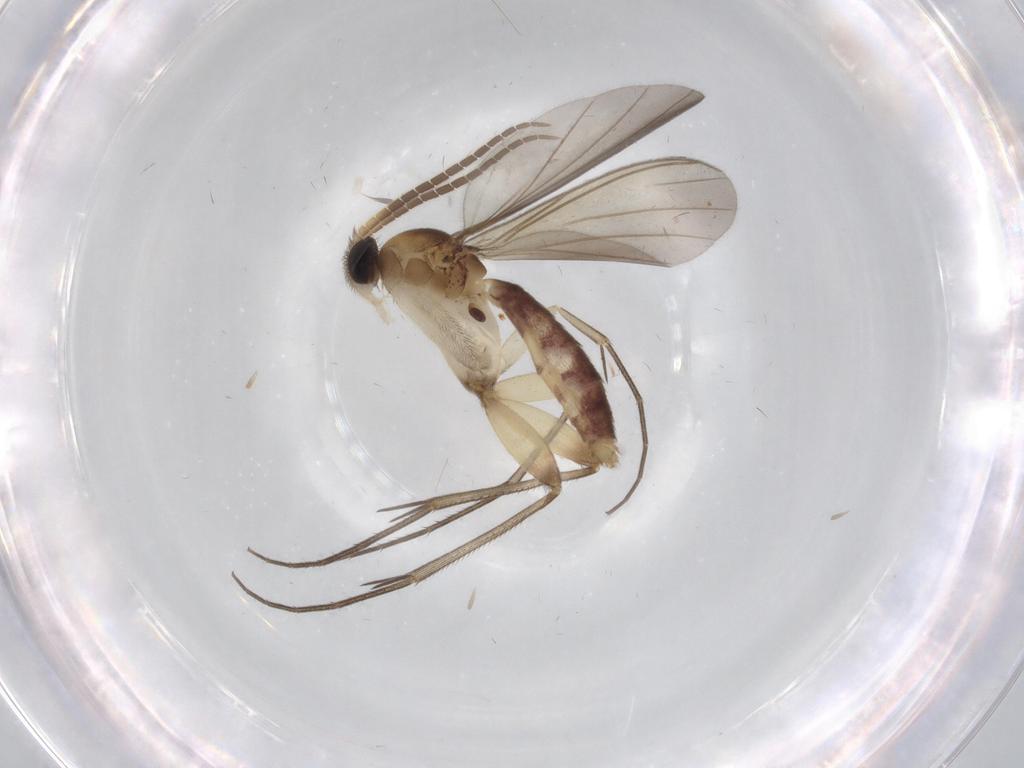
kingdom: Animalia
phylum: Arthropoda
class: Insecta
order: Diptera
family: Mycetophilidae
